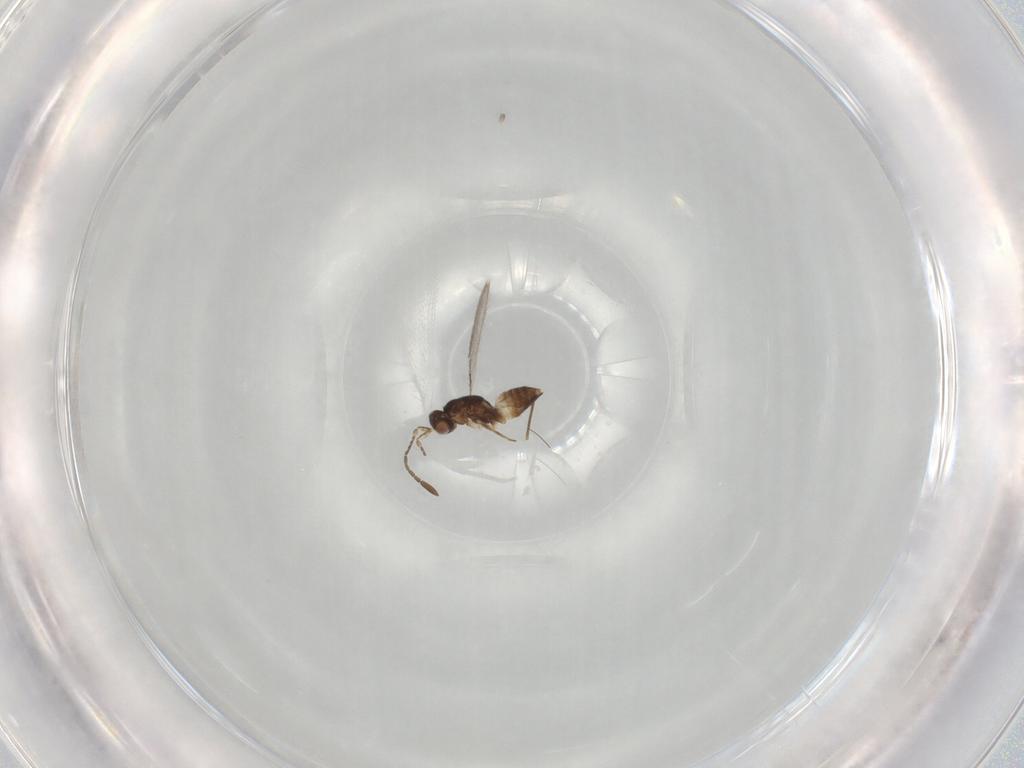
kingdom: Animalia
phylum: Arthropoda
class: Insecta
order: Hymenoptera
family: Mymaridae
